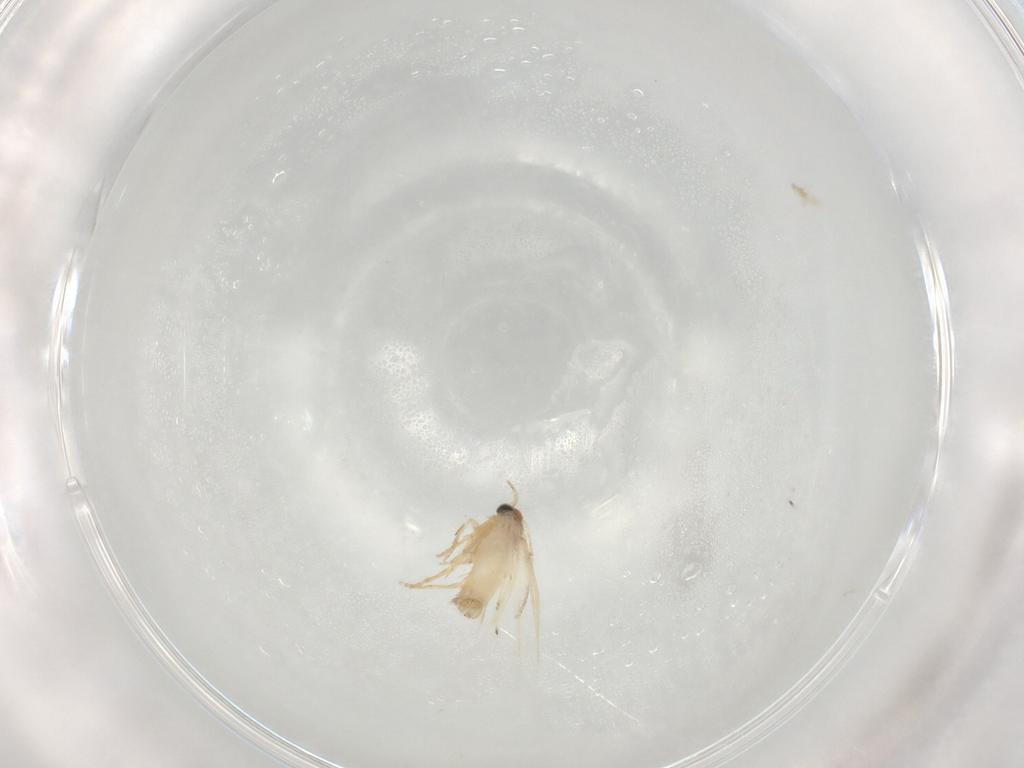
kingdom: Animalia
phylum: Arthropoda
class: Insecta
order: Lepidoptera
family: Nepticulidae
